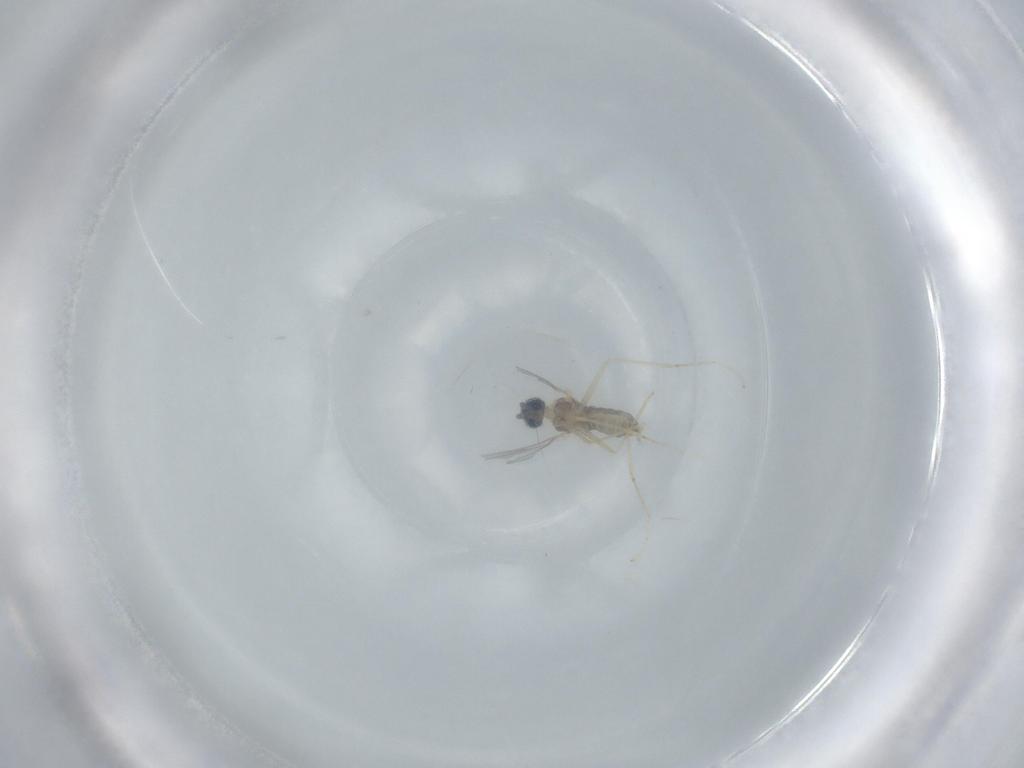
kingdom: Animalia
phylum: Arthropoda
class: Insecta
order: Diptera
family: Cecidomyiidae
